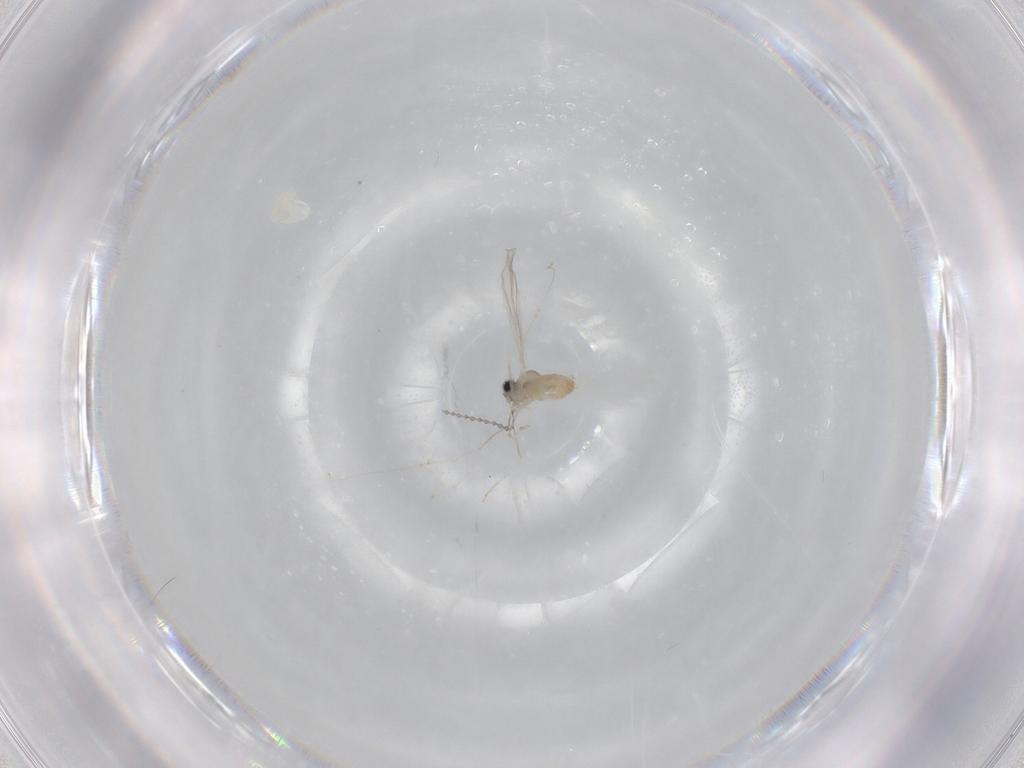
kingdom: Animalia
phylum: Arthropoda
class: Insecta
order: Diptera
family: Cecidomyiidae
